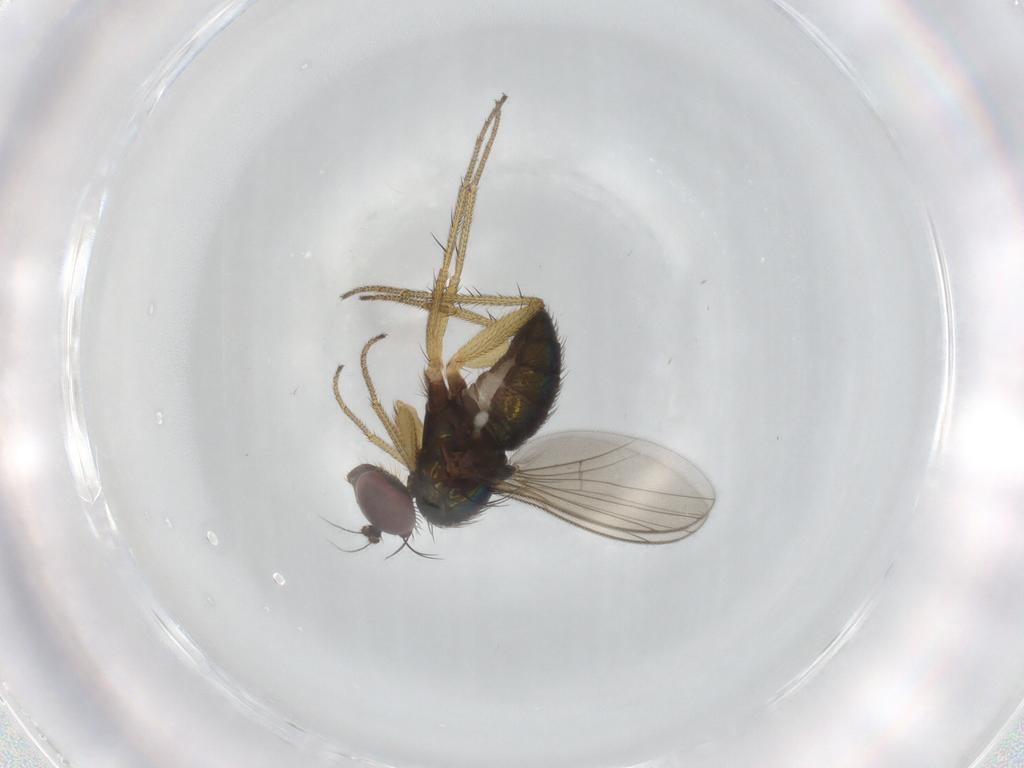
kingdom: Animalia
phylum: Arthropoda
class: Insecta
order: Diptera
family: Dolichopodidae
